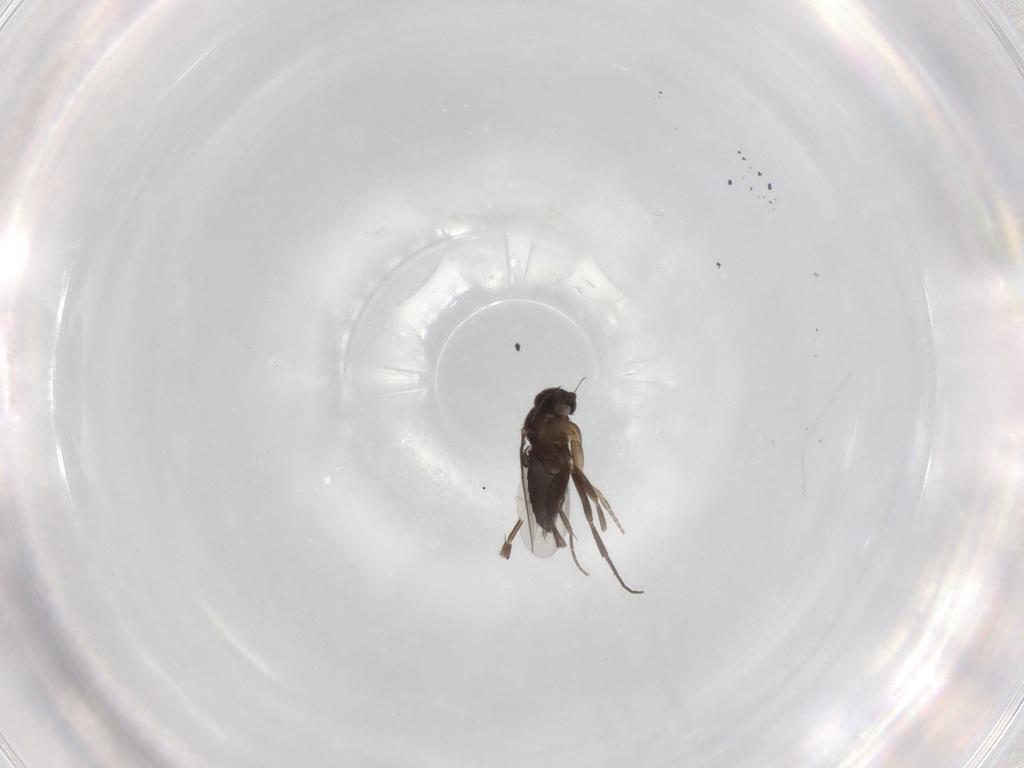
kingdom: Animalia
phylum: Arthropoda
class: Insecta
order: Diptera
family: Phoridae
